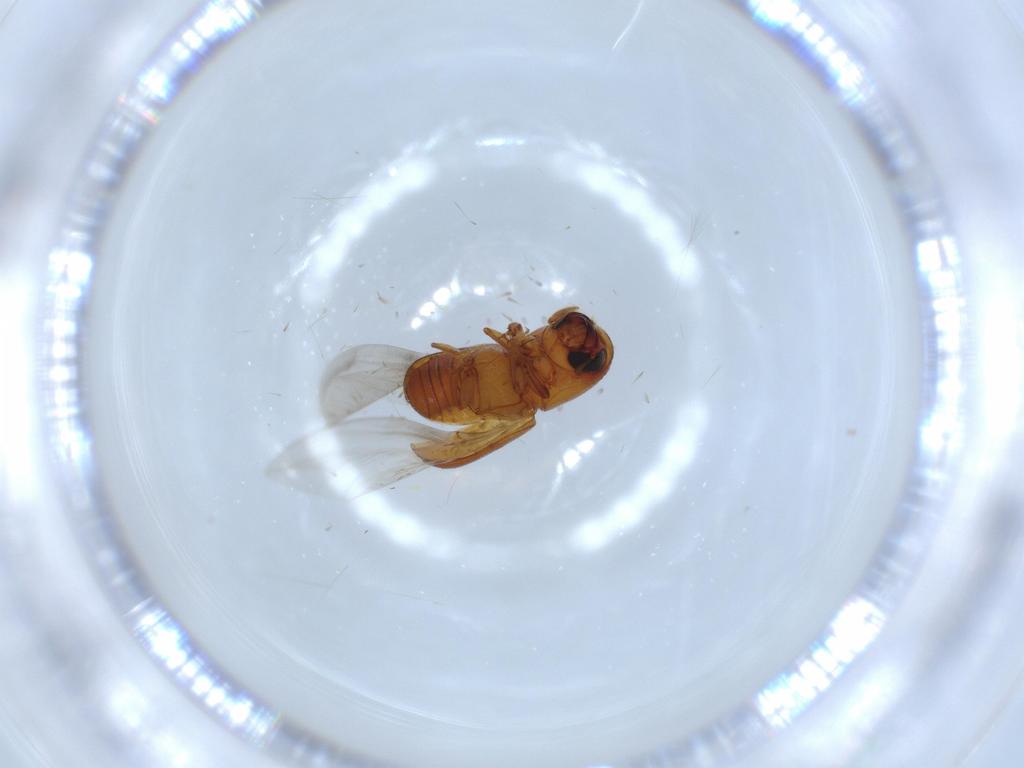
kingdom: Animalia
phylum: Arthropoda
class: Insecta
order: Coleoptera
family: Curculionidae
